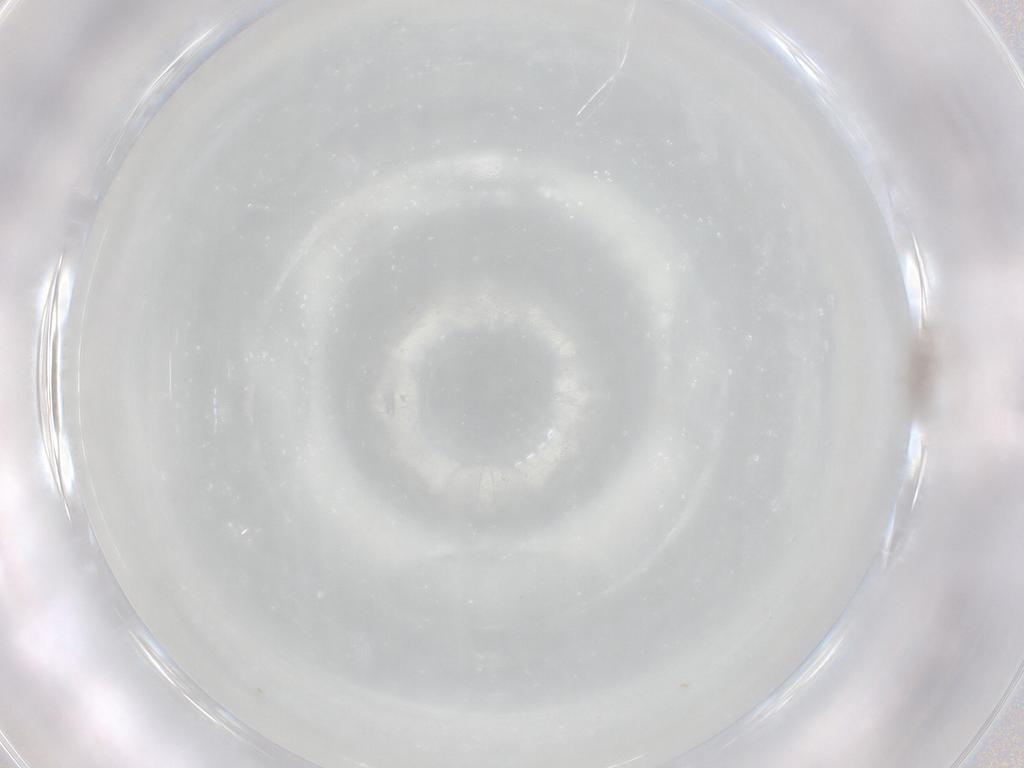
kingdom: Animalia
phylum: Arthropoda
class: Insecta
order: Hemiptera
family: Pseudococcidae
